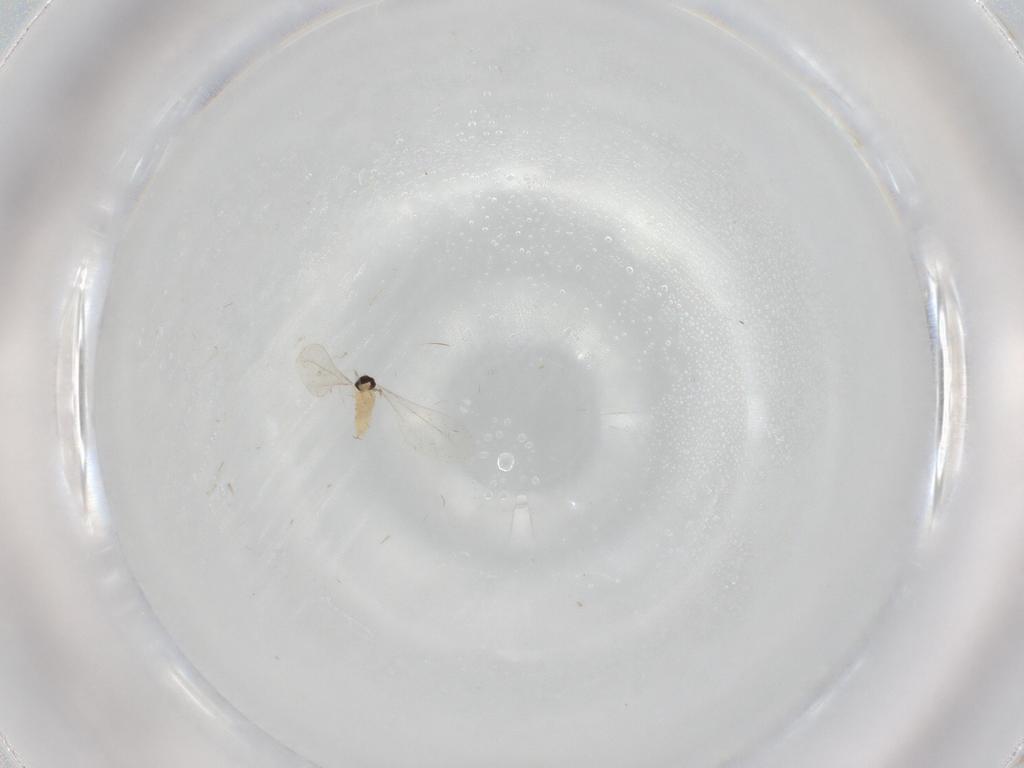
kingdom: Animalia
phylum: Arthropoda
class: Insecta
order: Diptera
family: Cecidomyiidae
